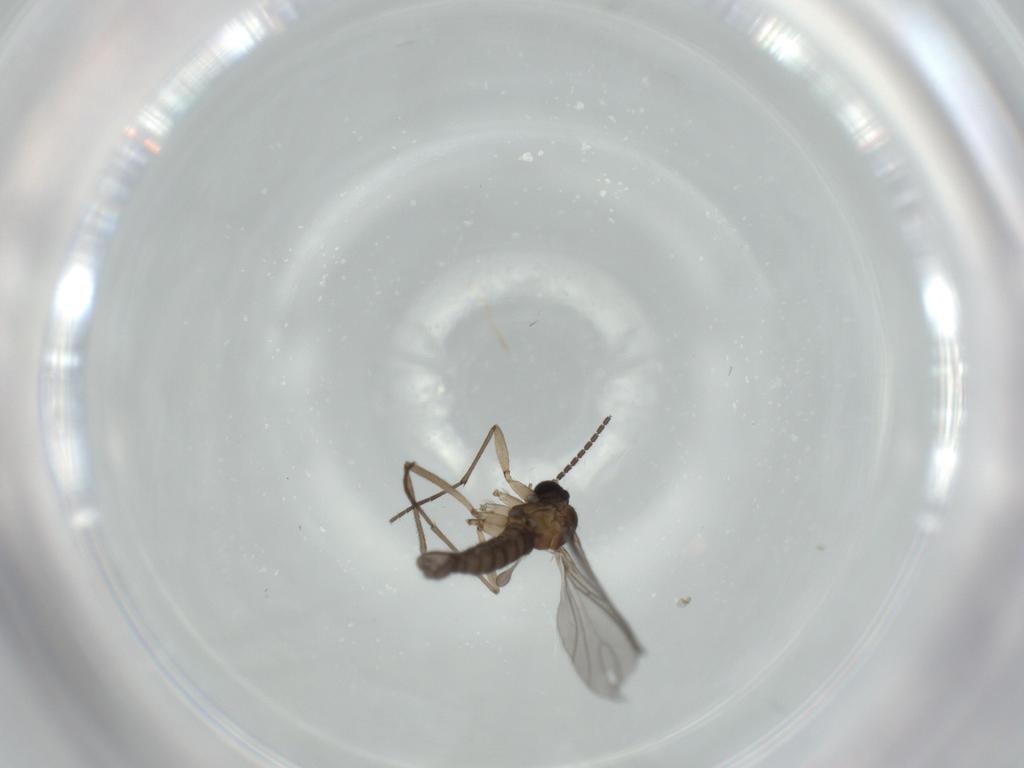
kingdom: Animalia
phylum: Arthropoda
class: Insecta
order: Diptera
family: Sciaridae
